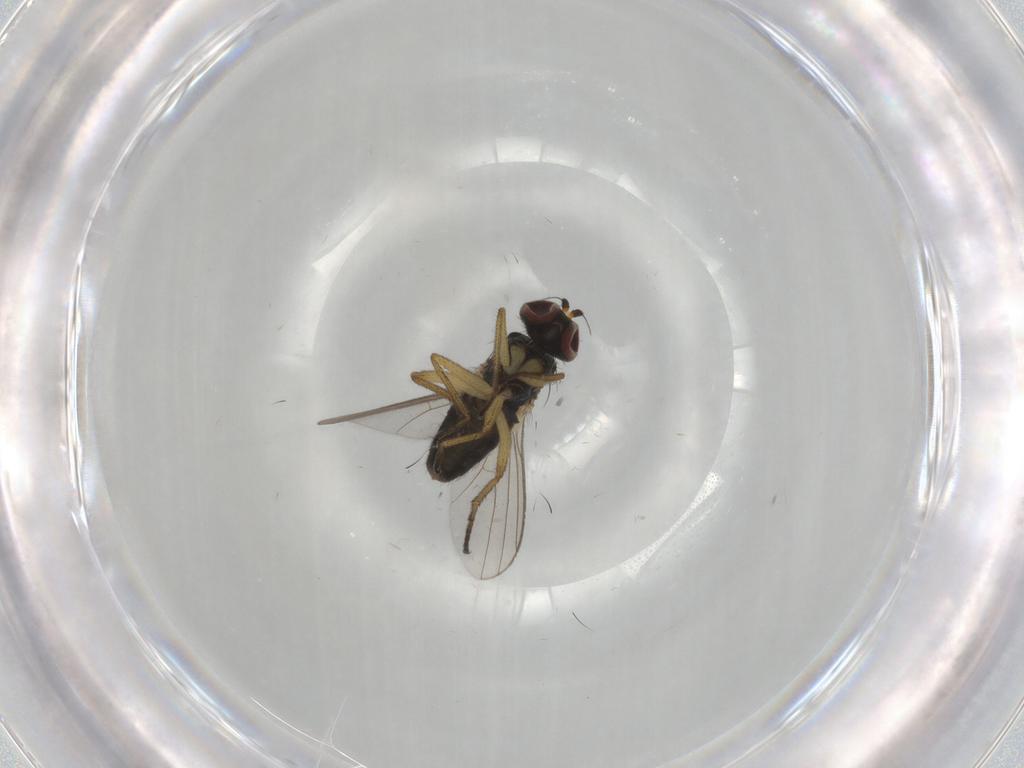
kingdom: Animalia
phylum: Arthropoda
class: Insecta
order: Diptera
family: Dolichopodidae
